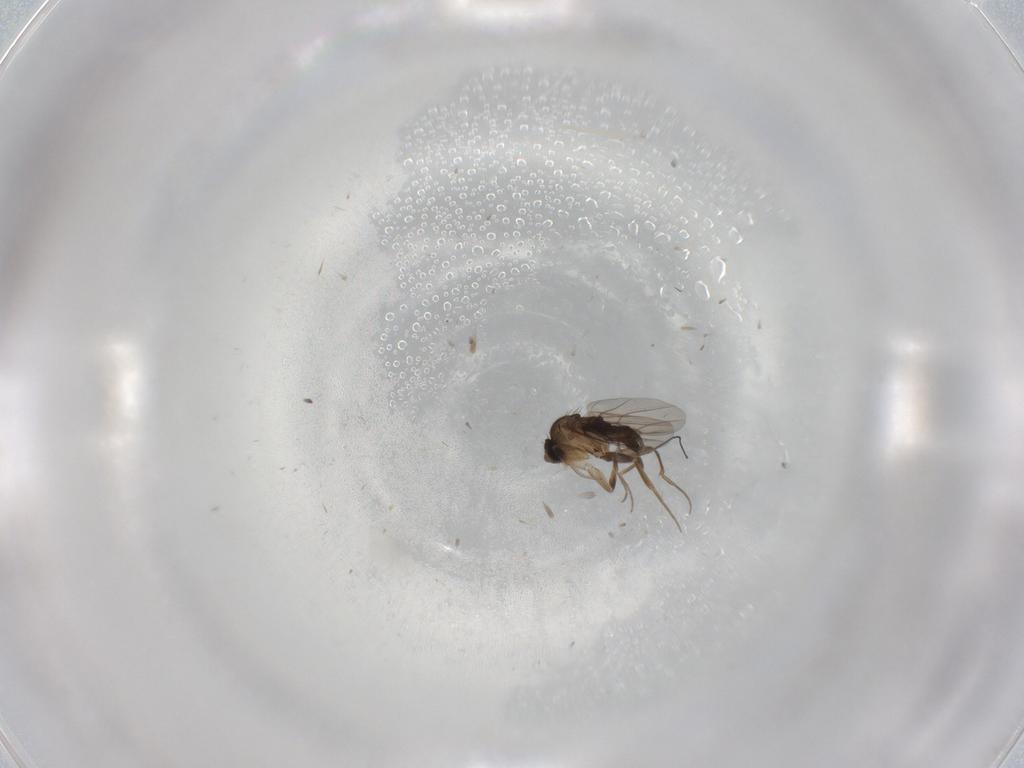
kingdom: Animalia
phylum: Arthropoda
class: Insecta
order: Diptera
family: Phoridae
